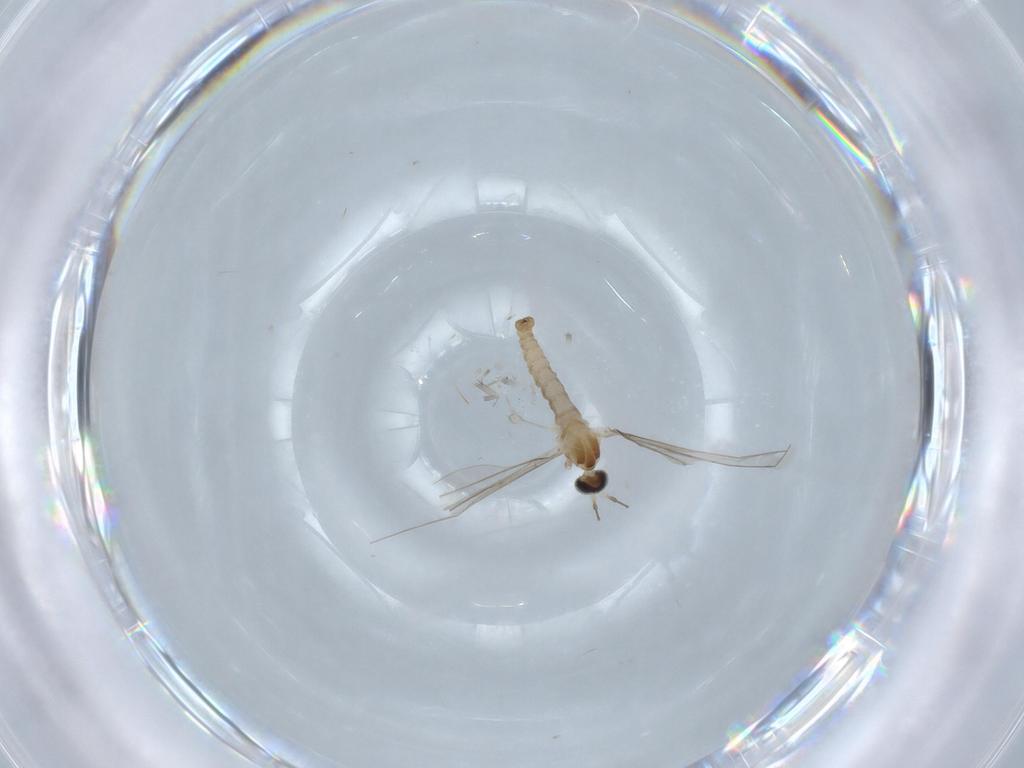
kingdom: Animalia
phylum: Arthropoda
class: Insecta
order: Diptera
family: Cecidomyiidae
